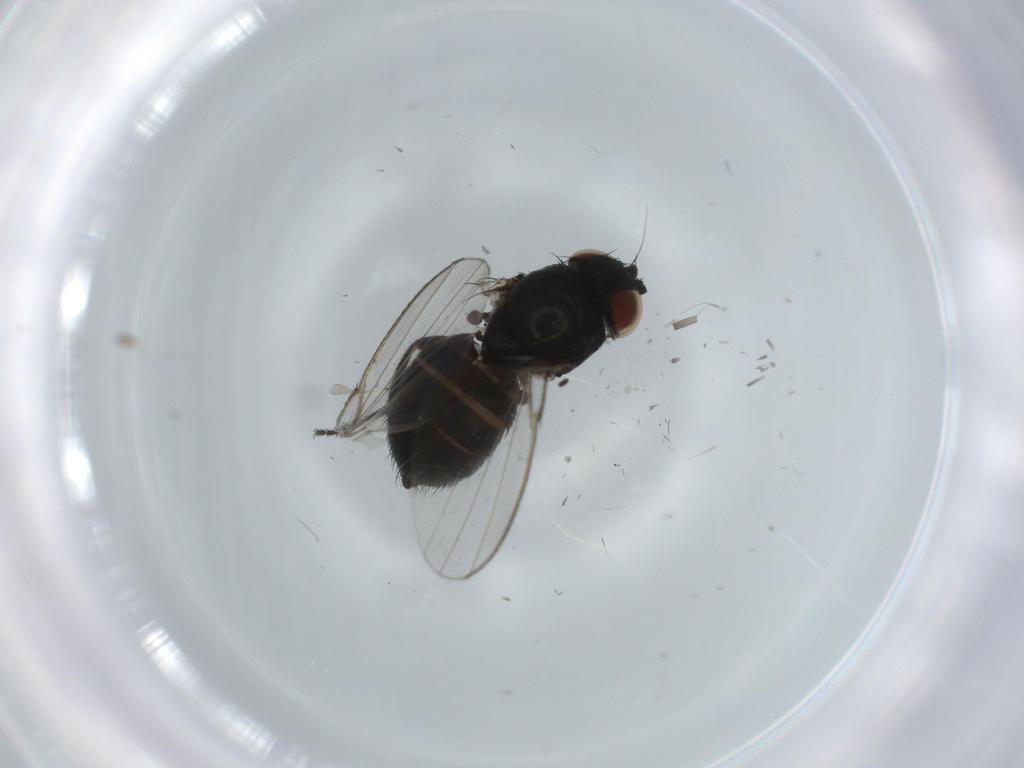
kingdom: Animalia
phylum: Arthropoda
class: Insecta
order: Diptera
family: Milichiidae
